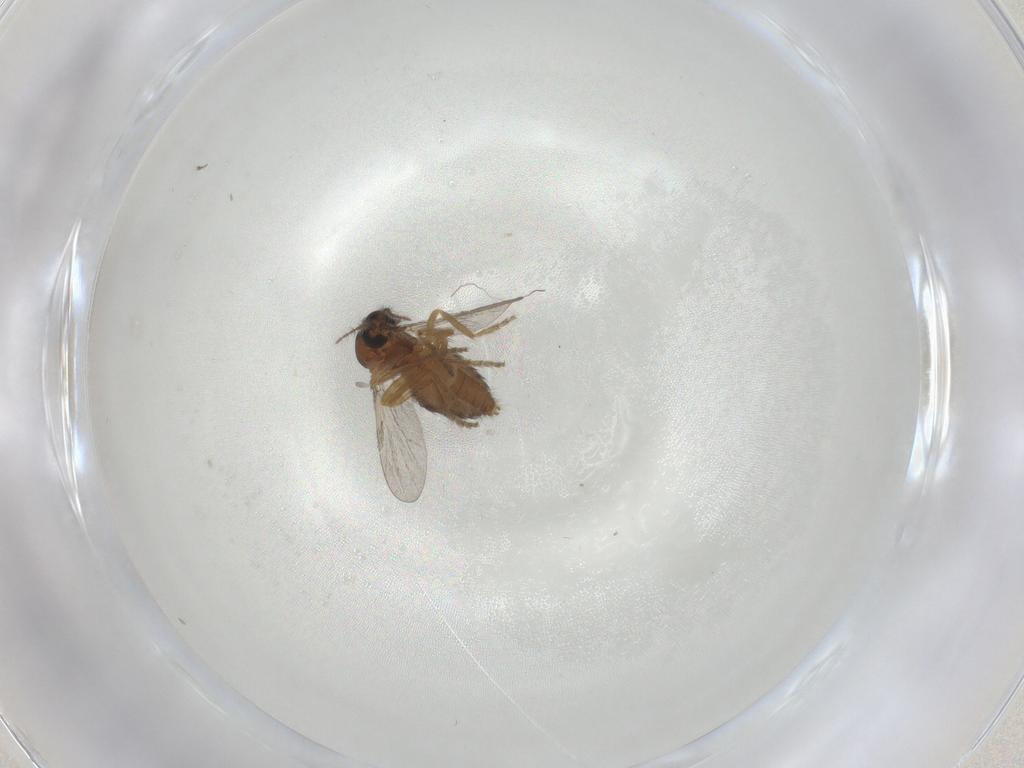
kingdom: Animalia
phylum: Arthropoda
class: Insecta
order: Diptera
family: Ceratopogonidae
